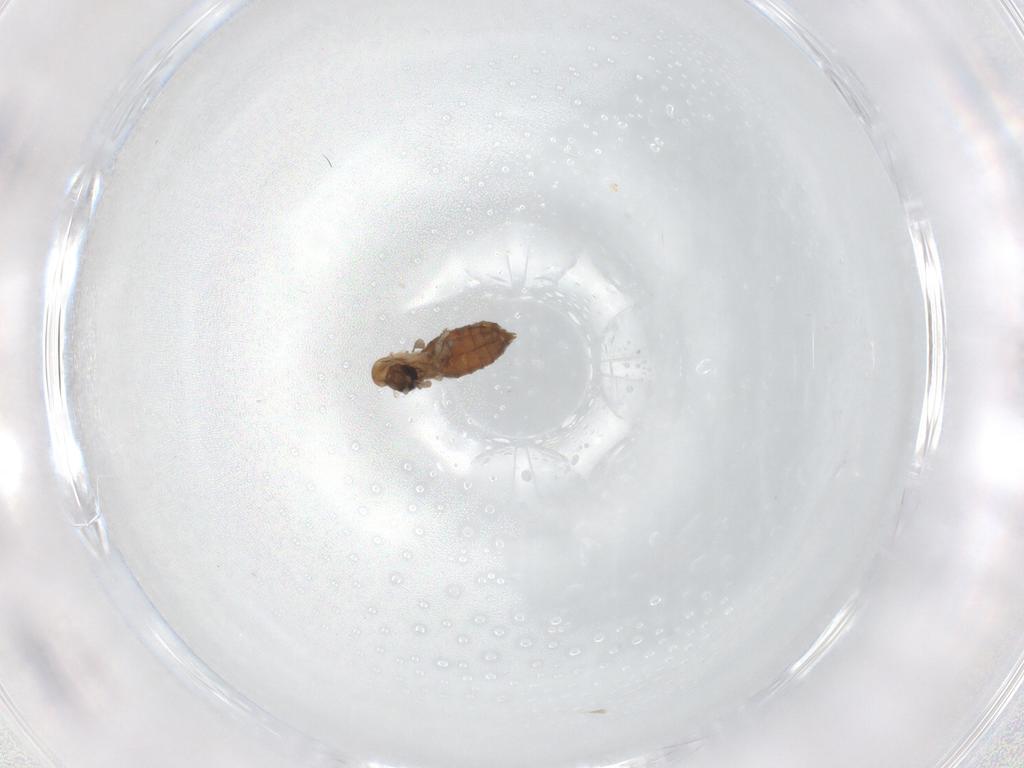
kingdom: Animalia
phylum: Arthropoda
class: Insecta
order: Diptera
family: Psychodidae
